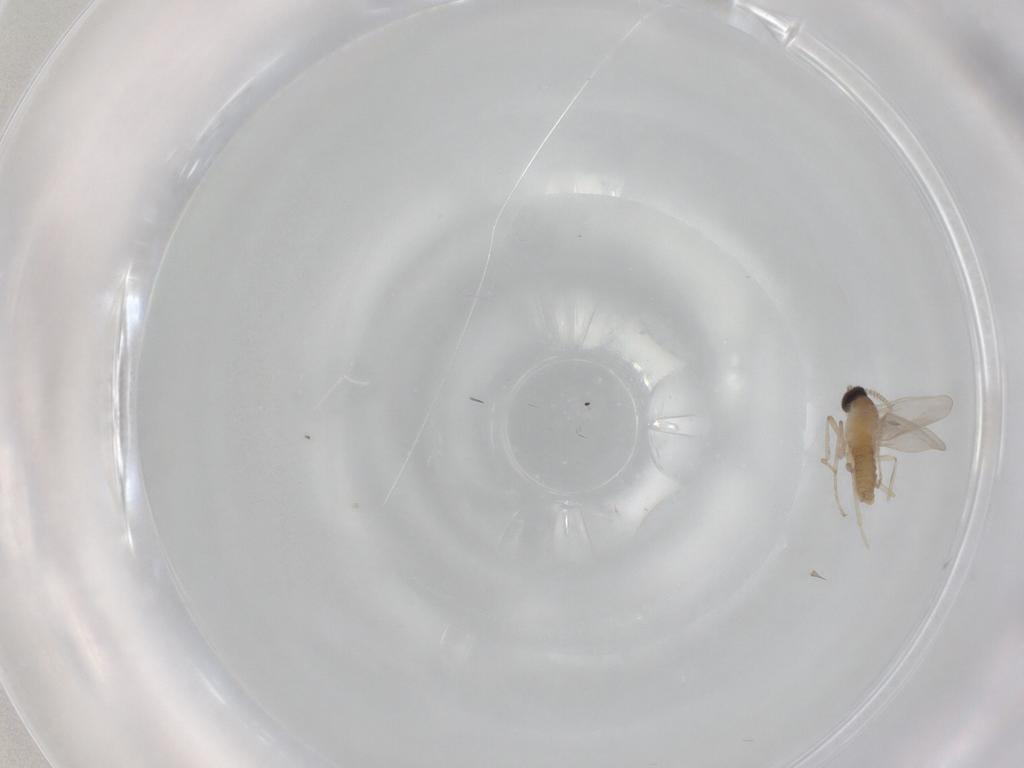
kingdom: Animalia
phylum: Arthropoda
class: Insecta
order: Diptera
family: Cecidomyiidae
